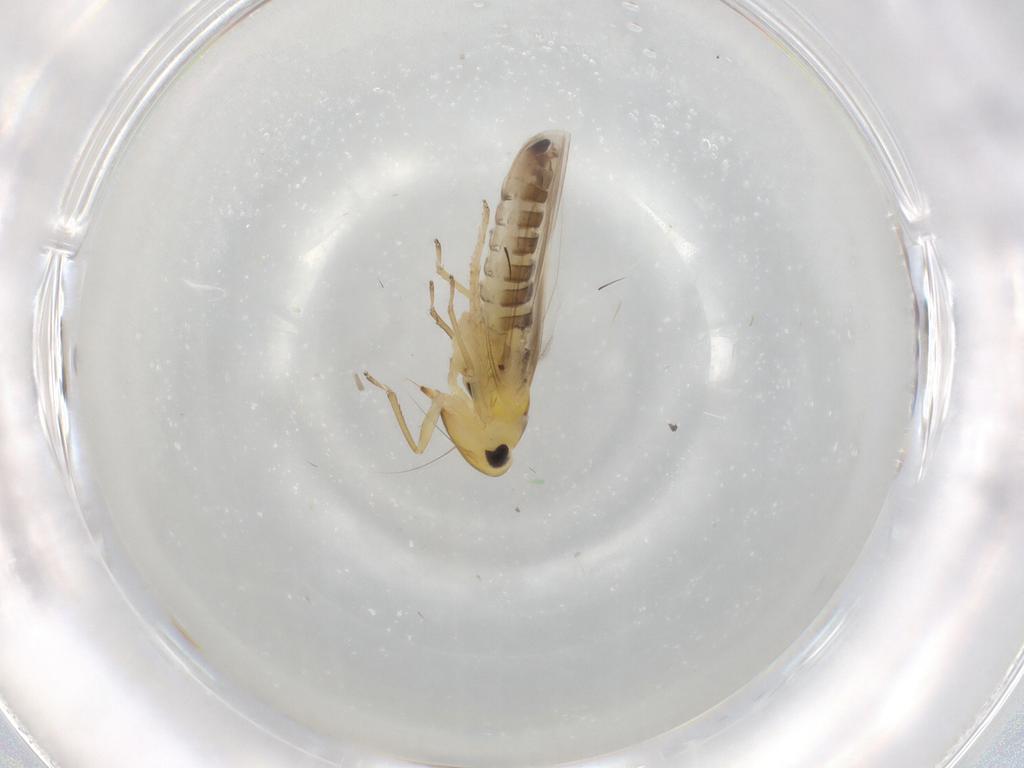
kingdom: Animalia
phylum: Arthropoda
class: Insecta
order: Hemiptera
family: Cicadellidae
